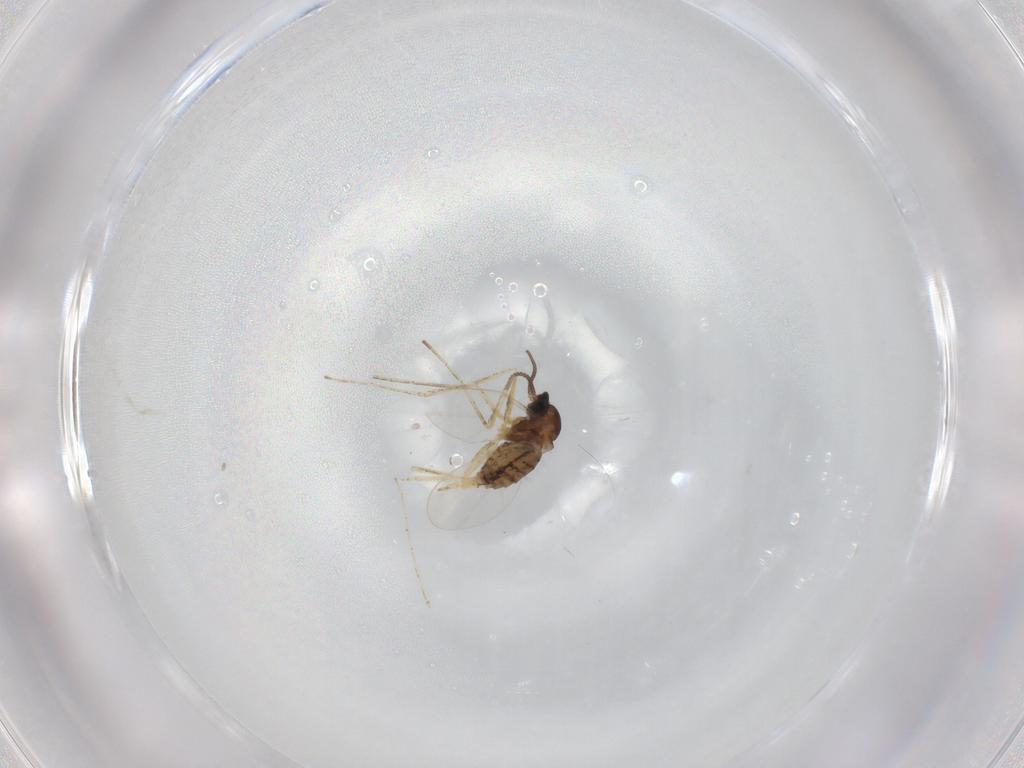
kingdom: Animalia
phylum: Arthropoda
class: Insecta
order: Diptera
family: Cecidomyiidae
